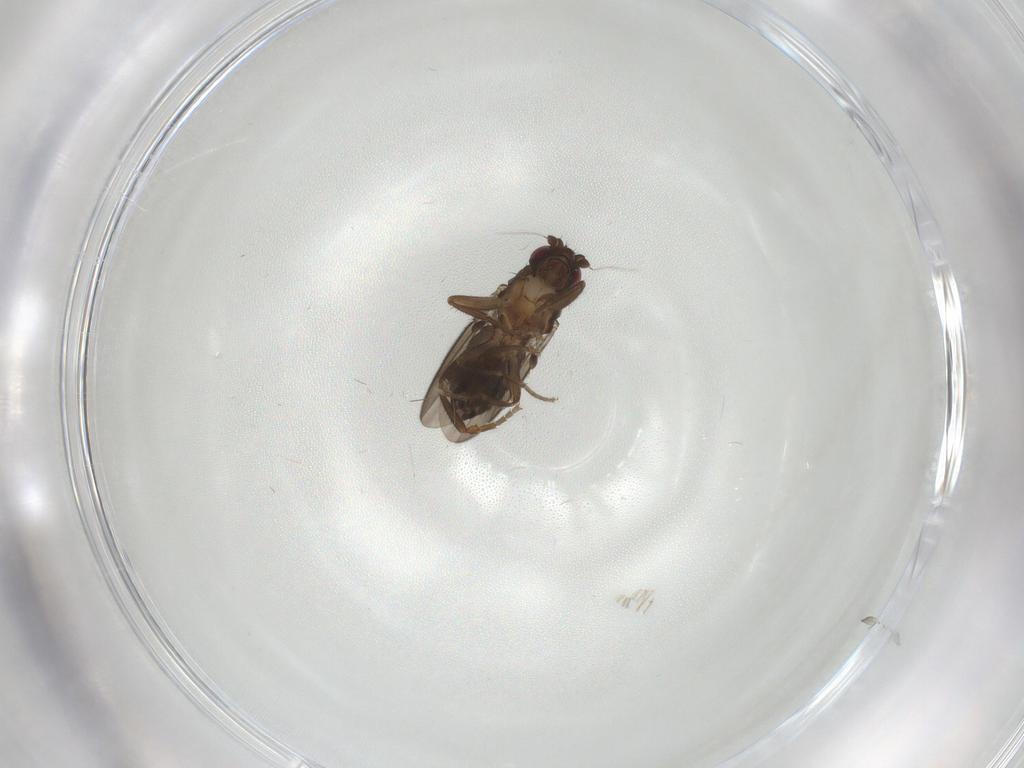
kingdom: Animalia
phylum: Arthropoda
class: Insecta
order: Diptera
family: Sphaeroceridae
